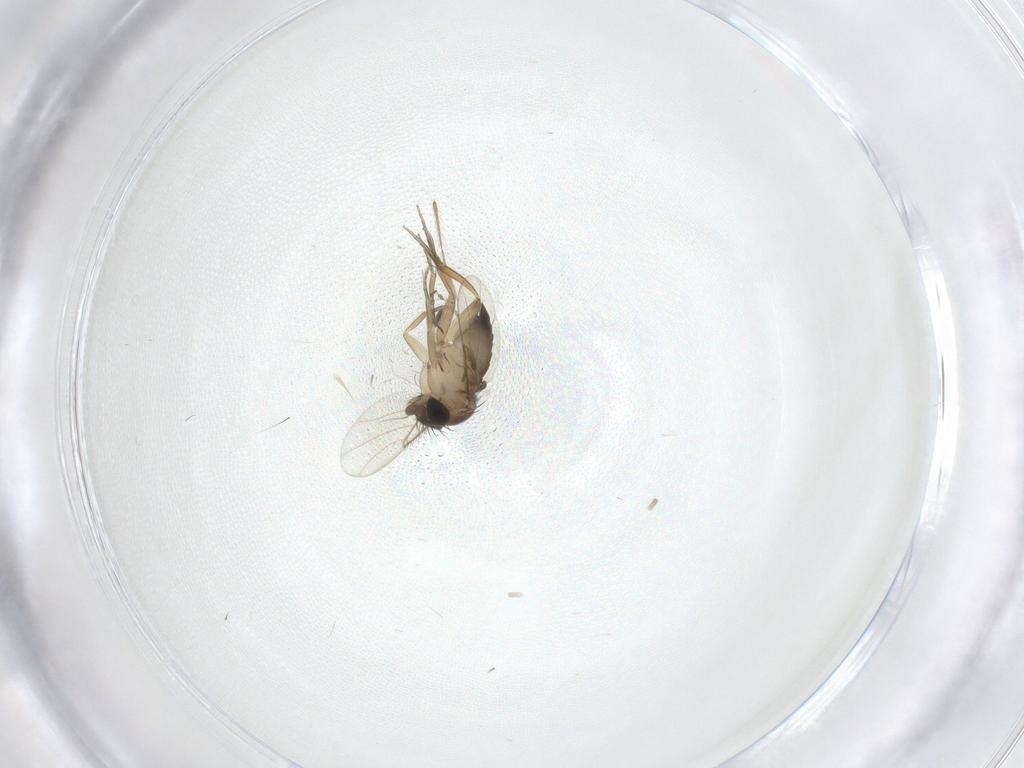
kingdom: Animalia
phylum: Arthropoda
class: Insecta
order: Diptera
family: Phoridae
